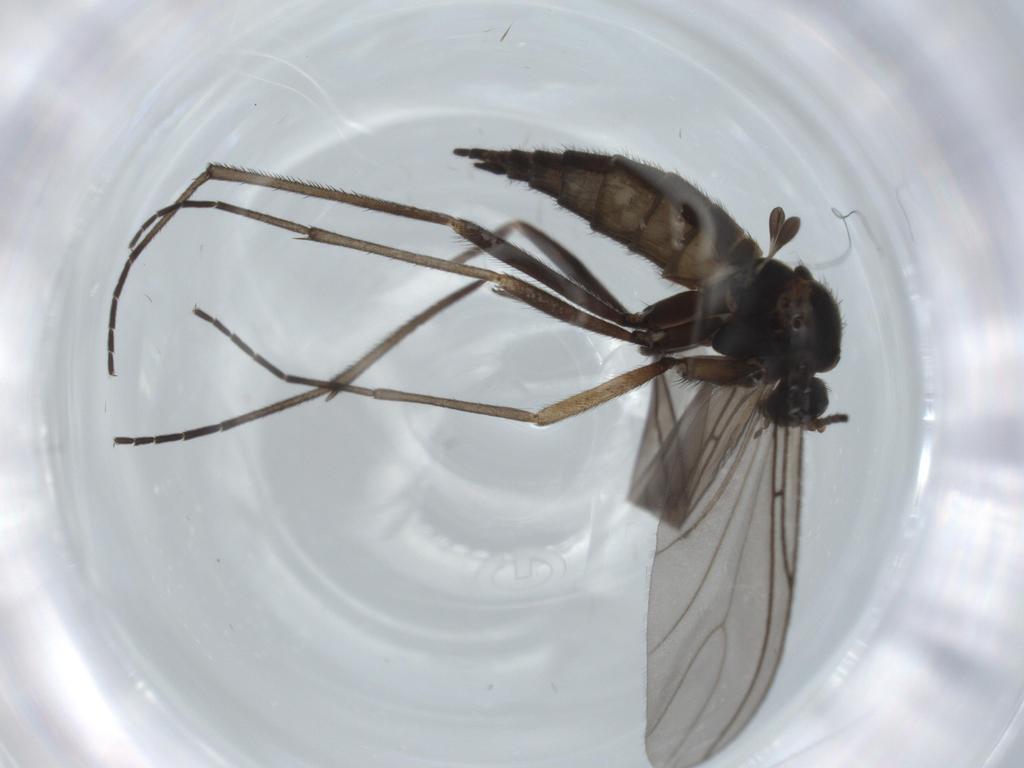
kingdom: Animalia
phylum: Arthropoda
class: Insecta
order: Diptera
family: Sciaridae
